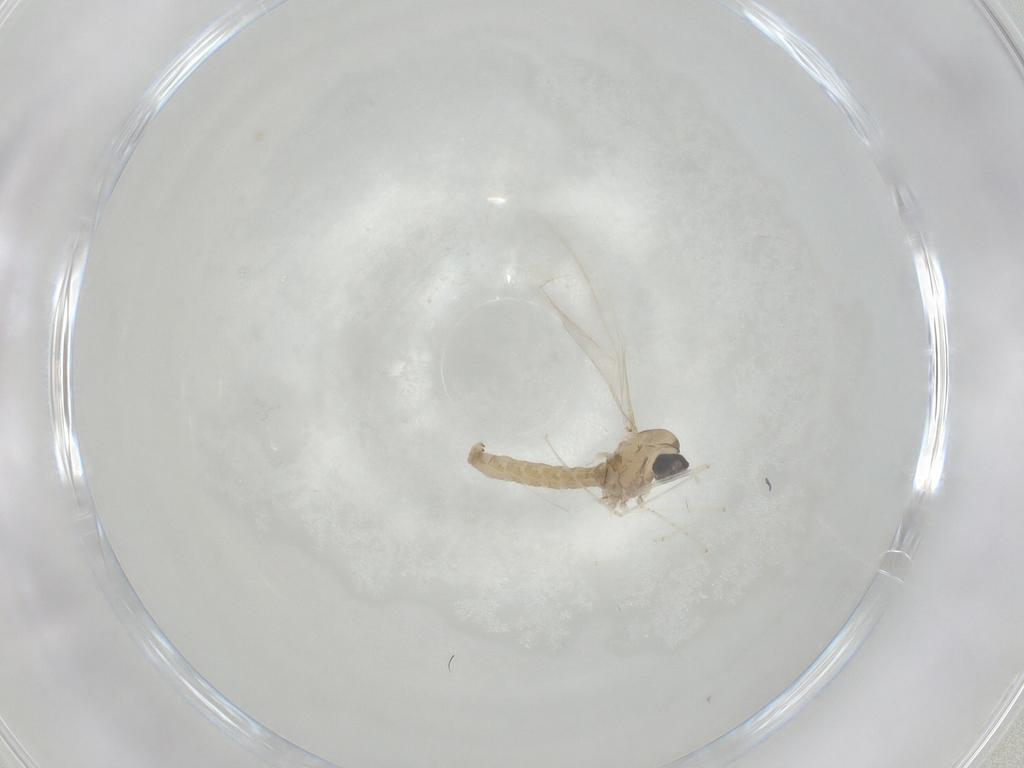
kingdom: Animalia
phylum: Arthropoda
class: Insecta
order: Diptera
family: Cecidomyiidae
